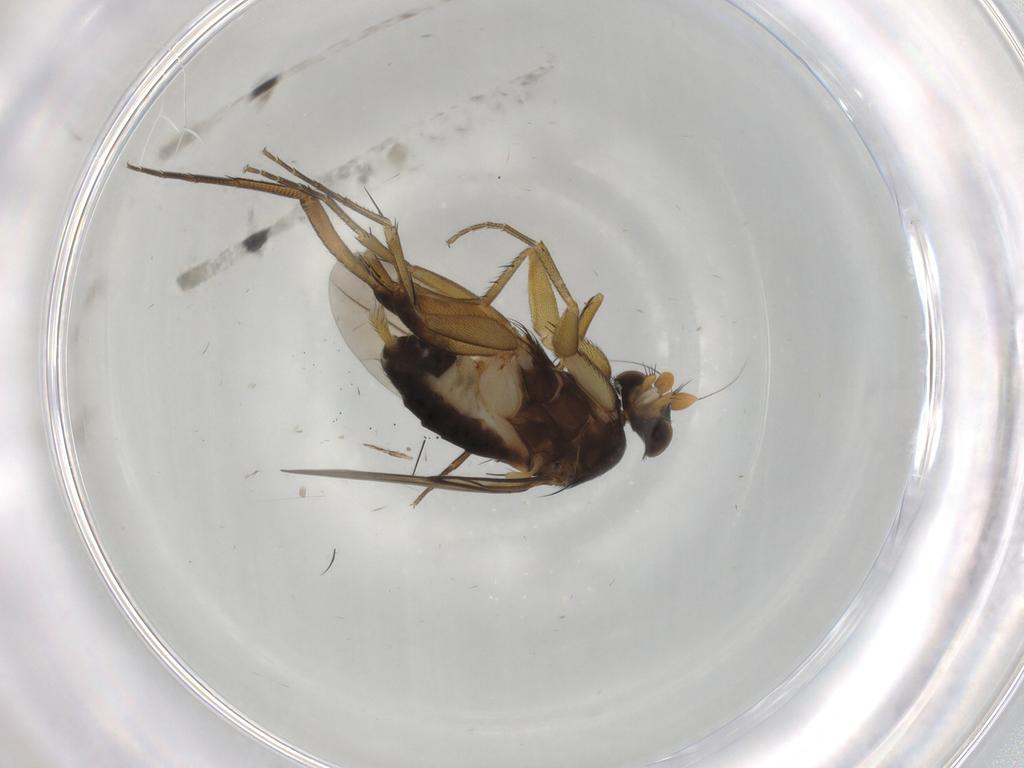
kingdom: Animalia
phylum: Arthropoda
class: Insecta
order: Diptera
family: Phoridae
